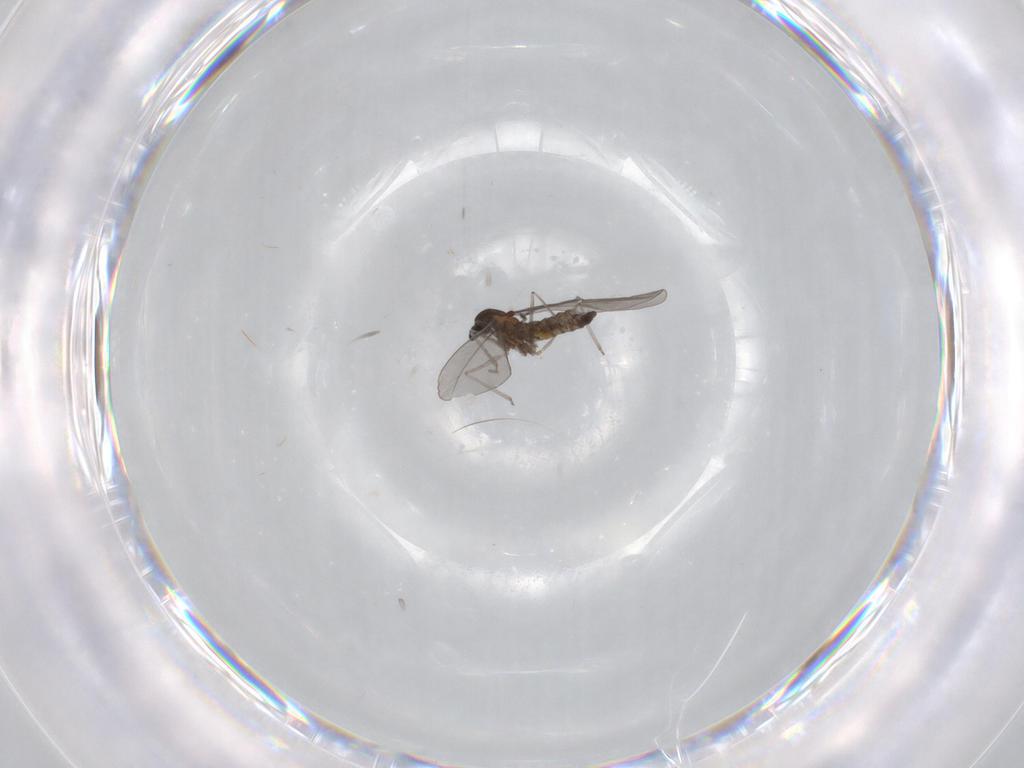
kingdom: Animalia
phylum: Arthropoda
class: Insecta
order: Diptera
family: Cecidomyiidae
